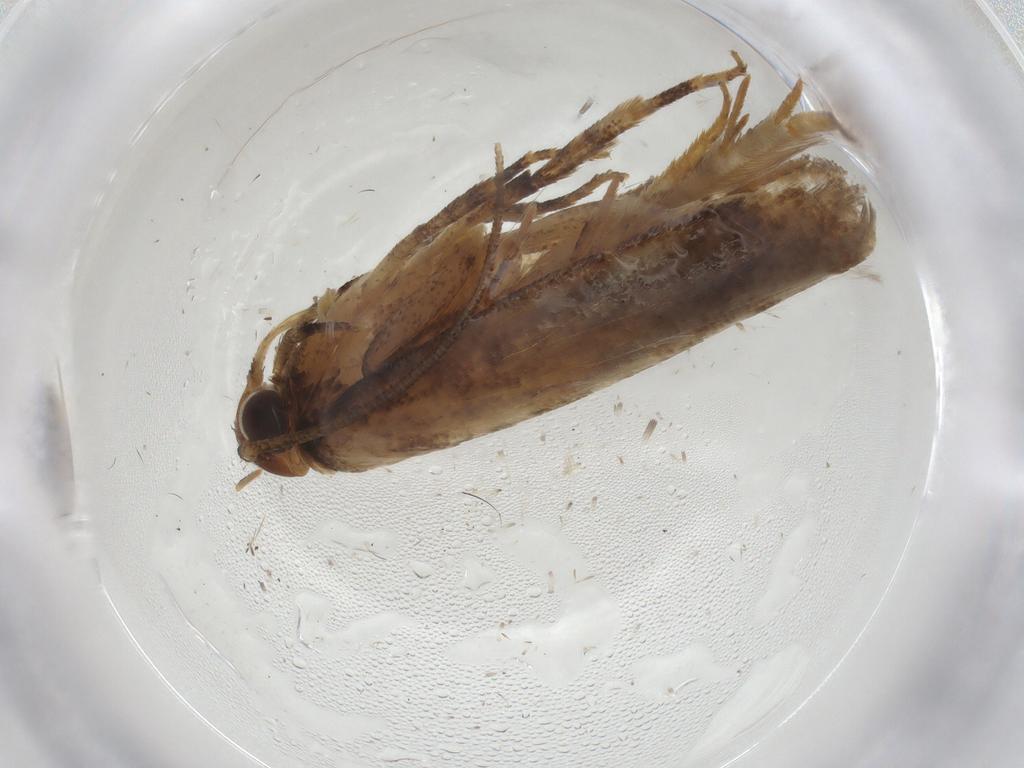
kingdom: Animalia
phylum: Arthropoda
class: Insecta
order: Lepidoptera
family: Gelechiidae
